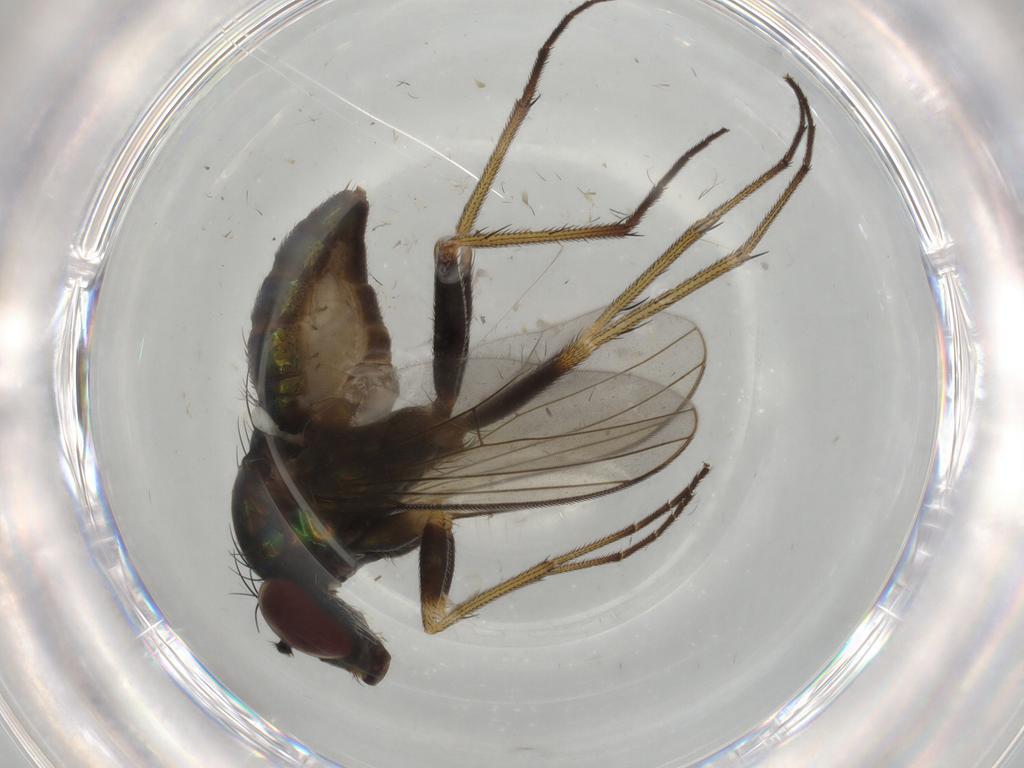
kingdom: Animalia
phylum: Arthropoda
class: Insecta
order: Diptera
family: Dolichopodidae
